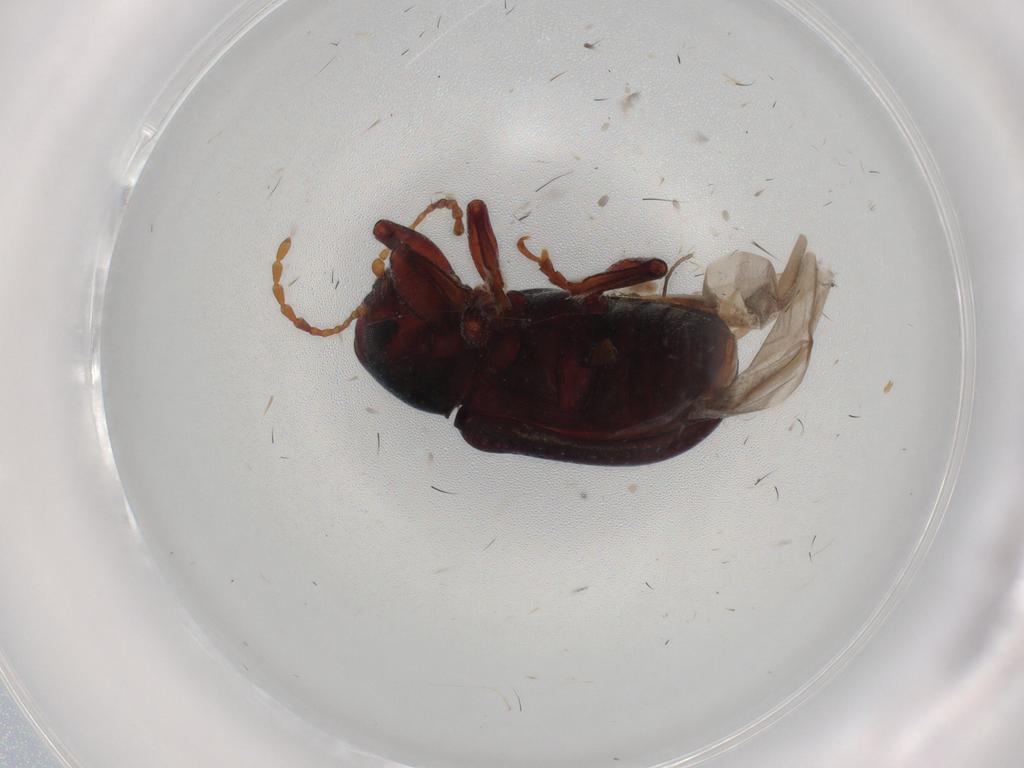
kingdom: Animalia
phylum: Arthropoda
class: Insecta
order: Coleoptera
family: Chrysomelidae
